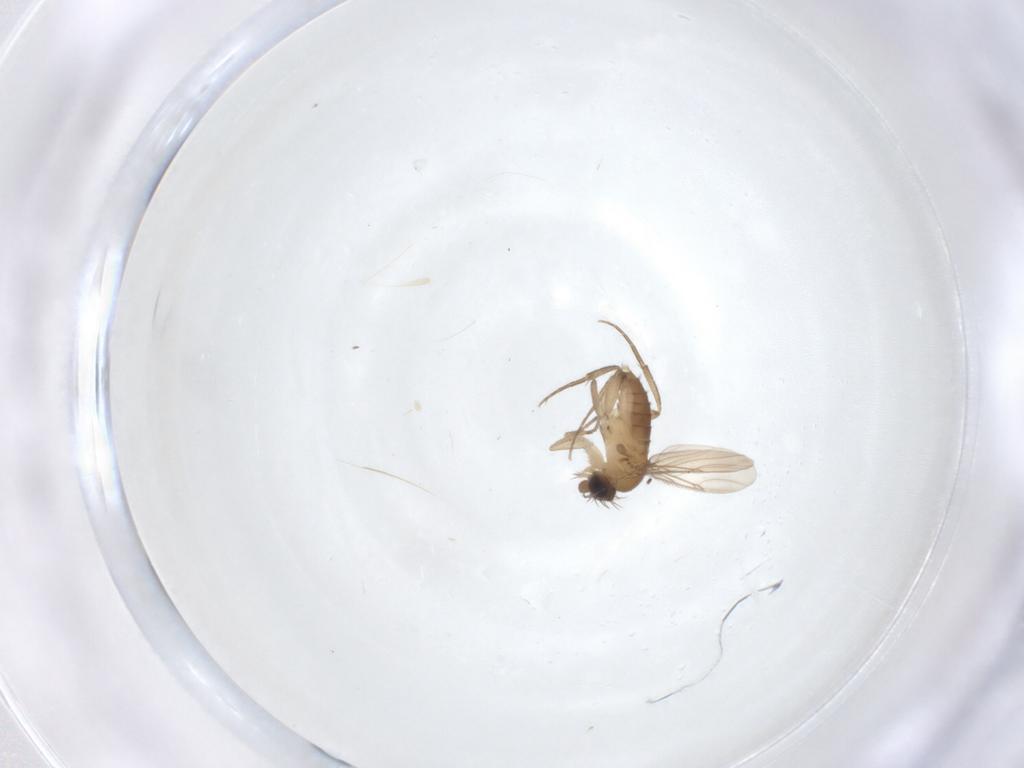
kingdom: Animalia
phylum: Arthropoda
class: Insecta
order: Diptera
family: Phoridae
